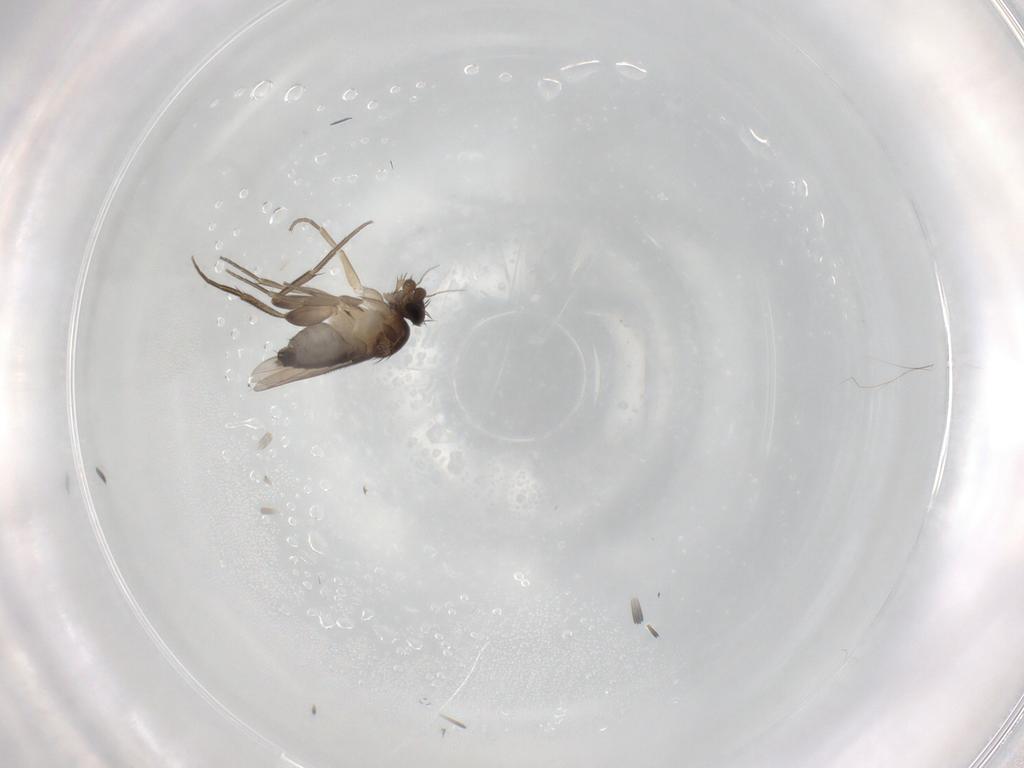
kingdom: Animalia
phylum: Arthropoda
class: Insecta
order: Diptera
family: Phoridae
